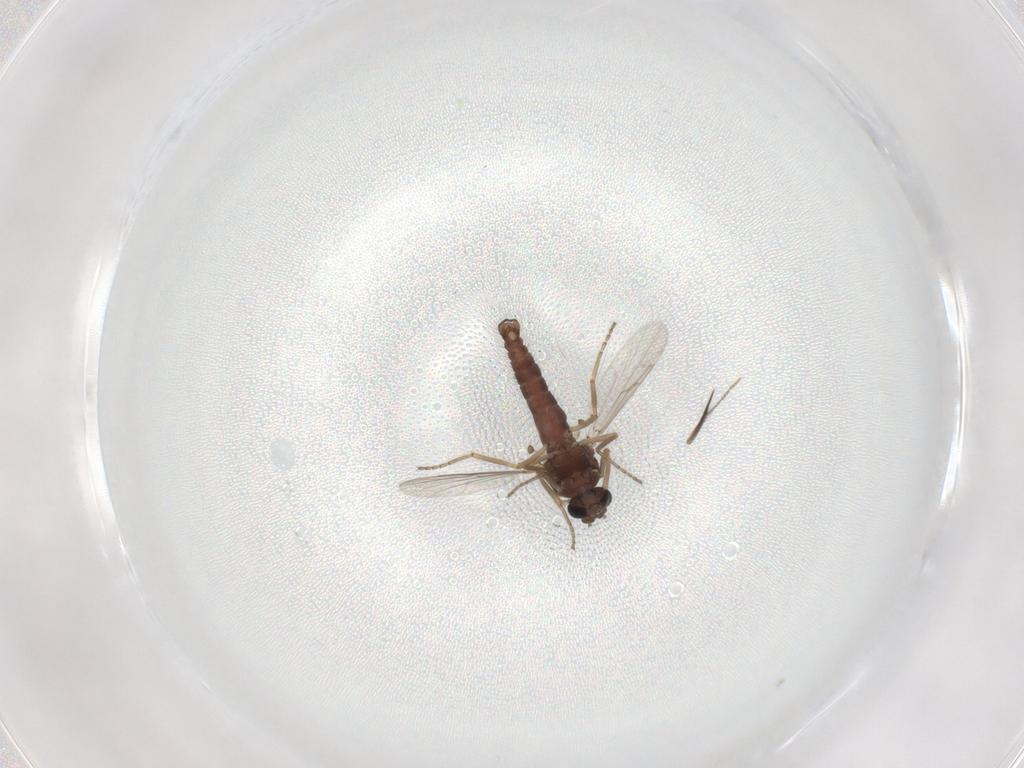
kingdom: Animalia
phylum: Arthropoda
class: Insecta
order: Diptera
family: Ceratopogonidae
